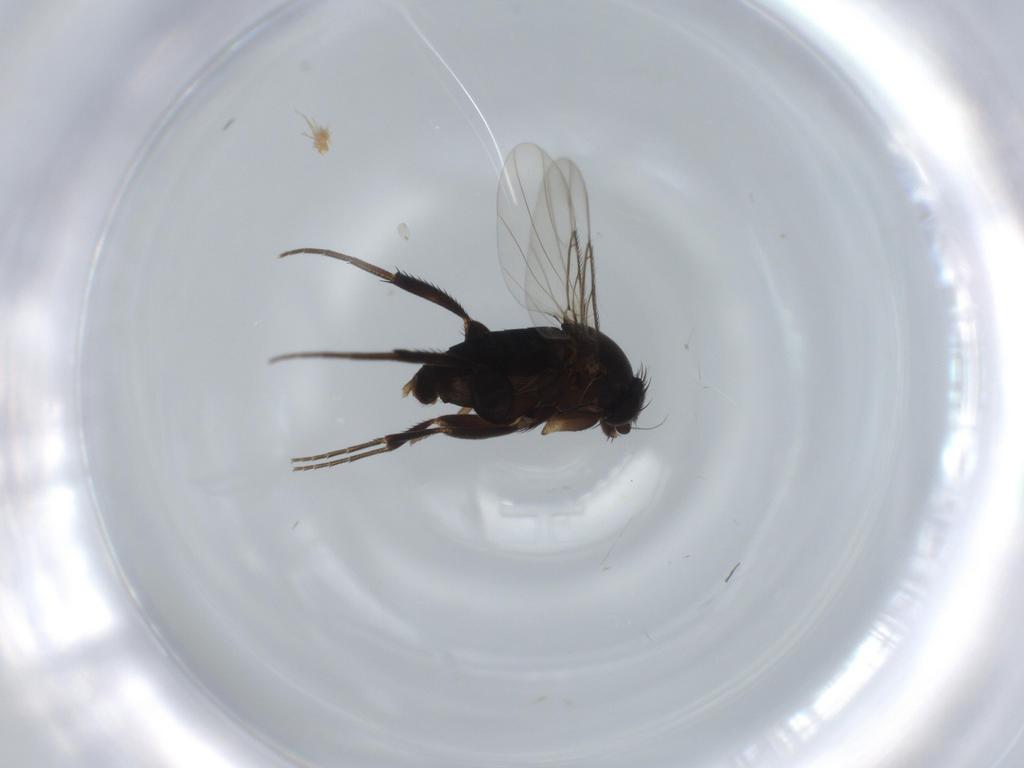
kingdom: Animalia
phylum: Arthropoda
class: Insecta
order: Diptera
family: Phoridae
